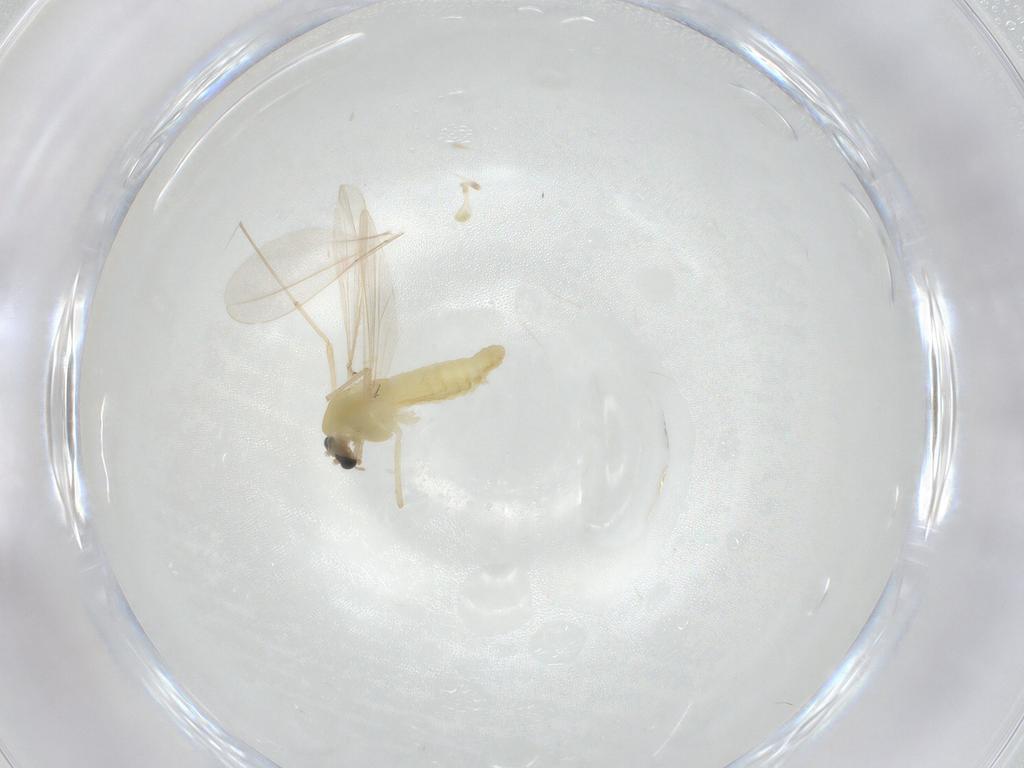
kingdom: Animalia
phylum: Arthropoda
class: Insecta
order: Diptera
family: Chironomidae
